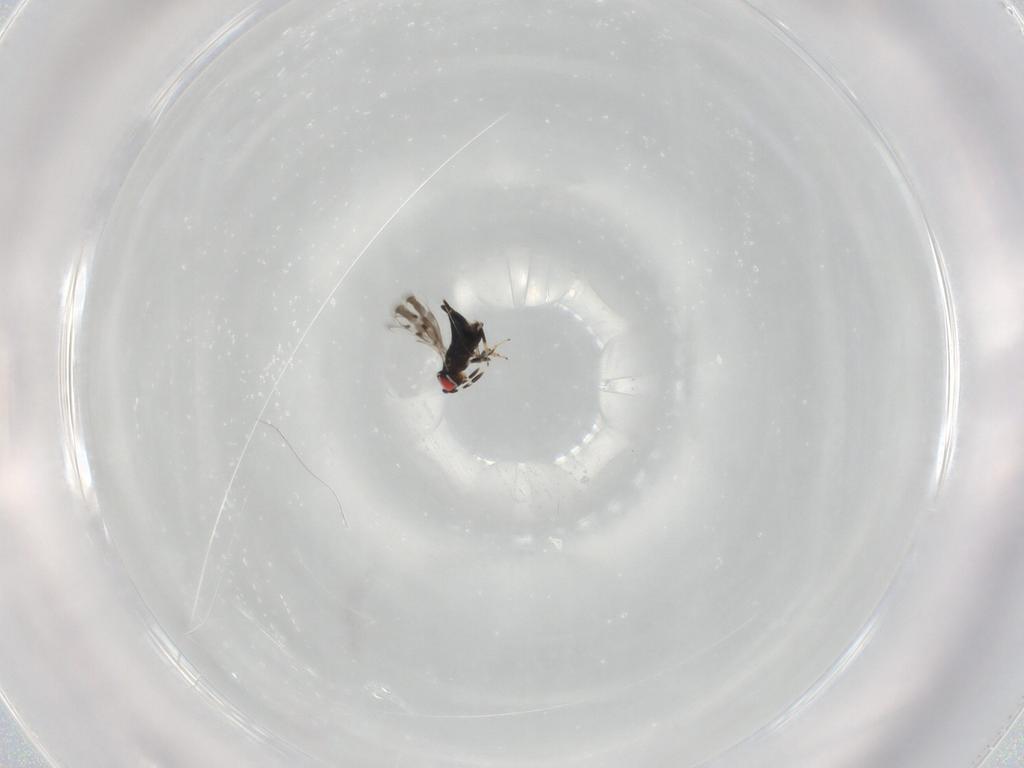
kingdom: Animalia
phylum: Arthropoda
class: Insecta
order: Hymenoptera
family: Azotidae
